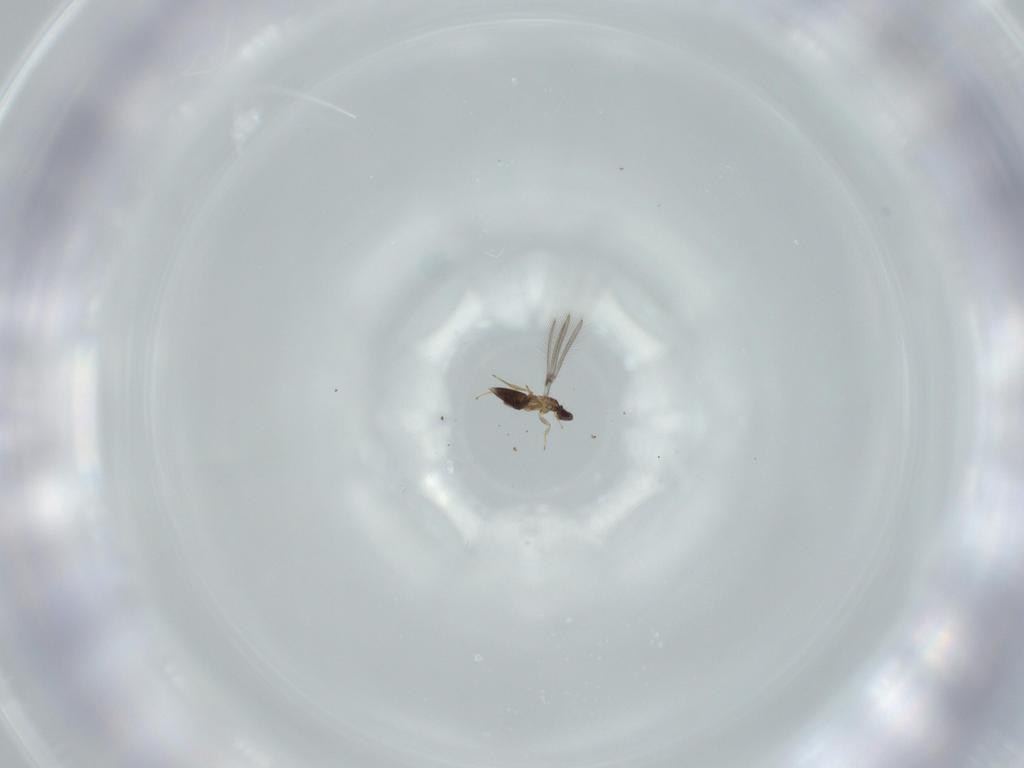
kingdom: Animalia
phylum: Arthropoda
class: Insecta
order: Hymenoptera
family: Mymaridae
